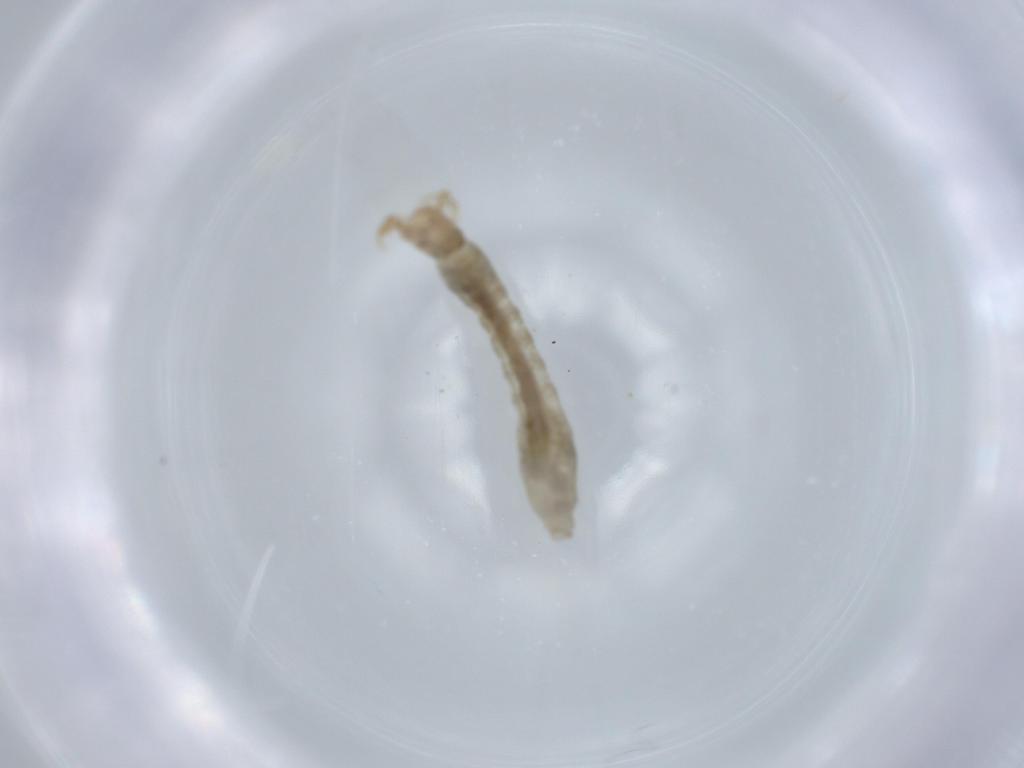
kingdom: Animalia
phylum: Arthropoda
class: Insecta
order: Diptera
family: Simuliidae
